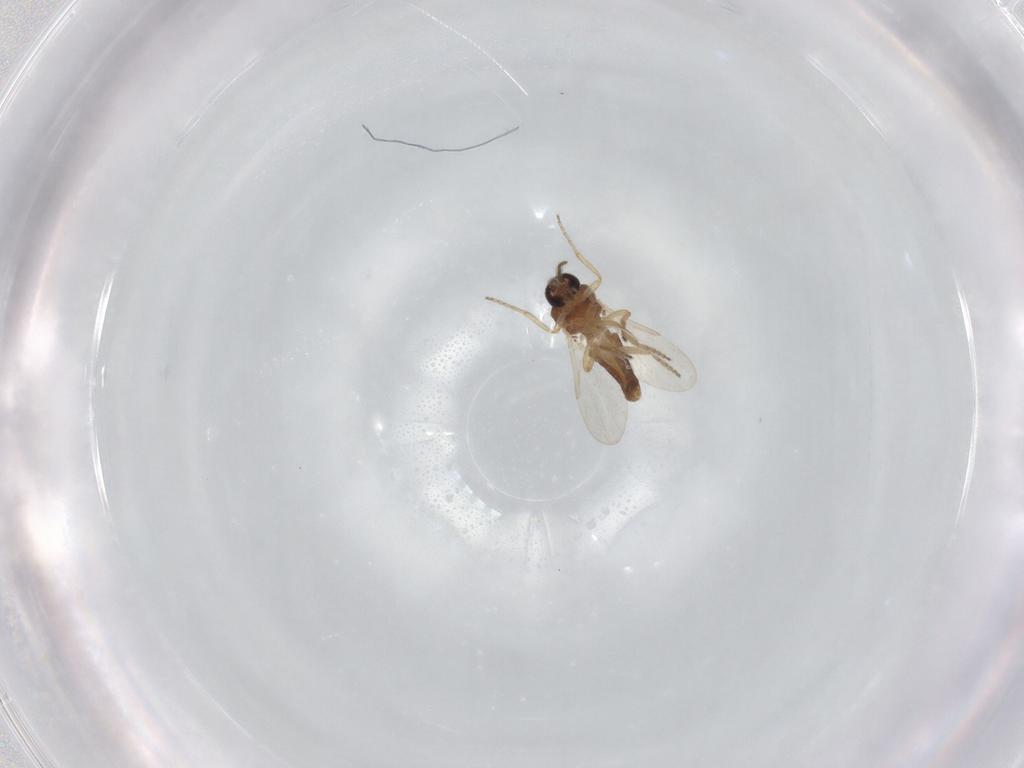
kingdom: Animalia
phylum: Arthropoda
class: Insecta
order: Diptera
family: Ceratopogonidae
